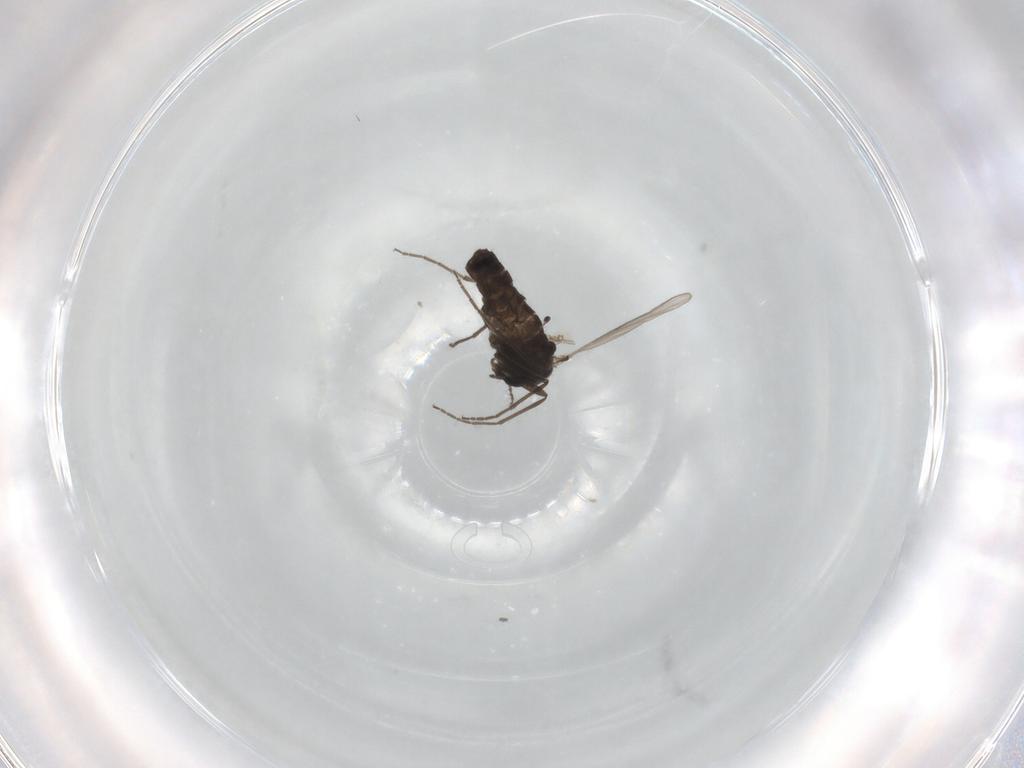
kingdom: Animalia
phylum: Arthropoda
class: Insecta
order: Diptera
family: Chironomidae
